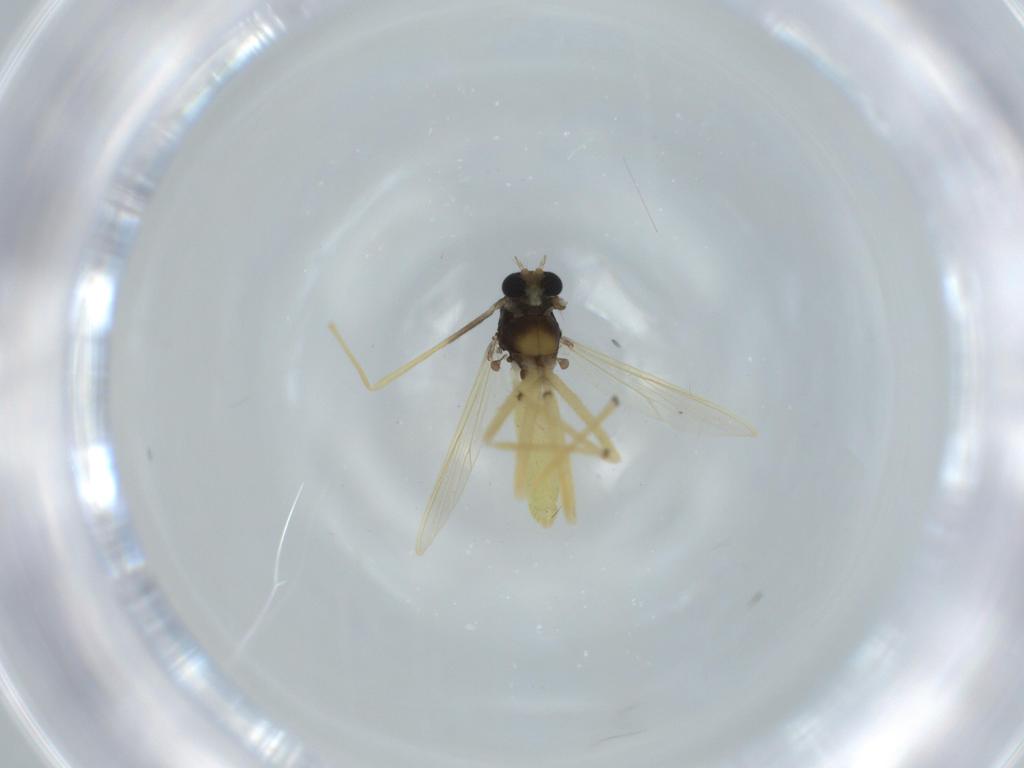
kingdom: Animalia
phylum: Arthropoda
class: Insecta
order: Diptera
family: Chironomidae
